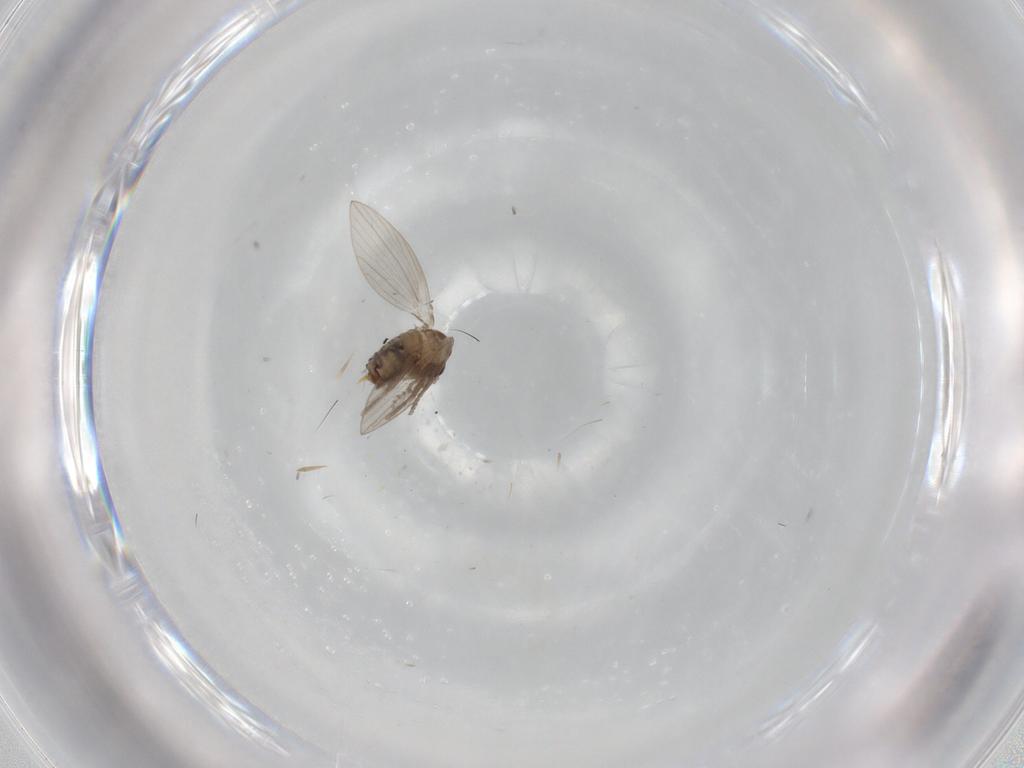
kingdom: Animalia
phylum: Arthropoda
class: Insecta
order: Diptera
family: Psychodidae
